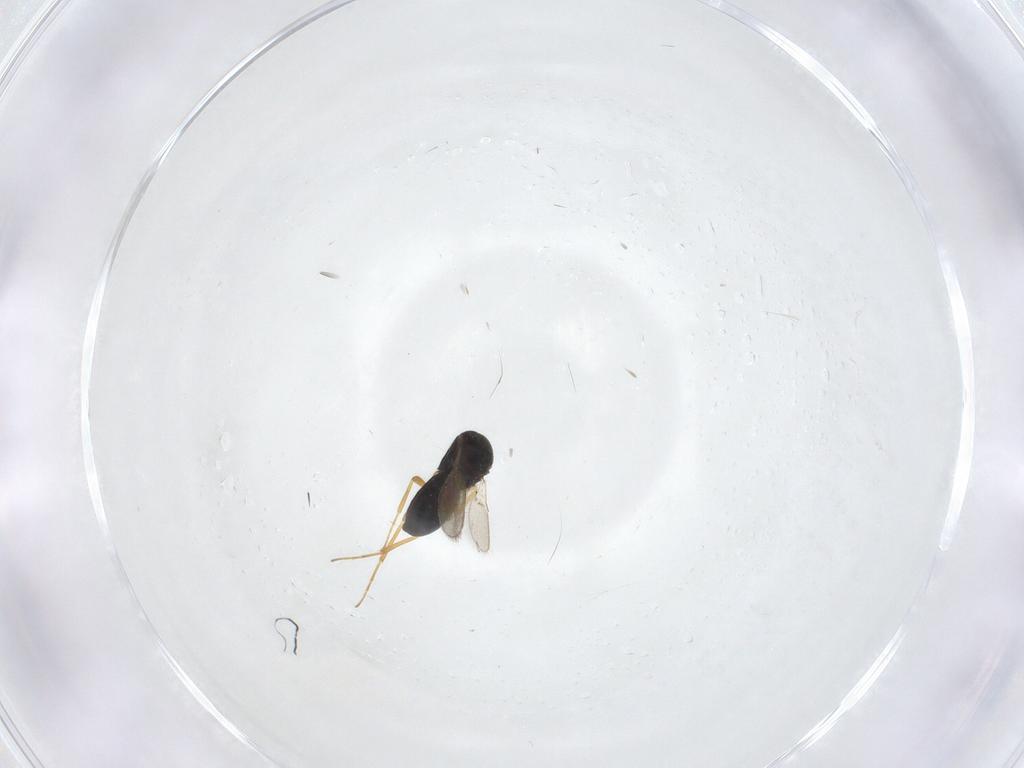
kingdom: Animalia
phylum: Arthropoda
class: Insecta
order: Hymenoptera
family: Scelionidae
